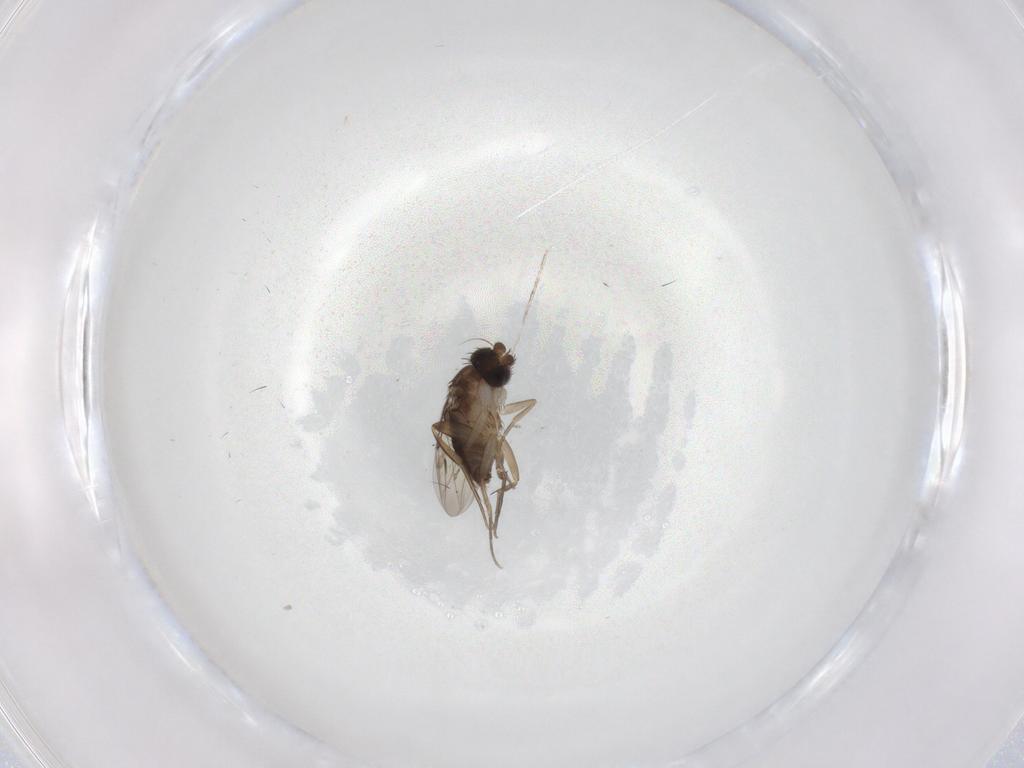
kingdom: Animalia
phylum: Arthropoda
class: Insecta
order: Diptera
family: Phoridae
